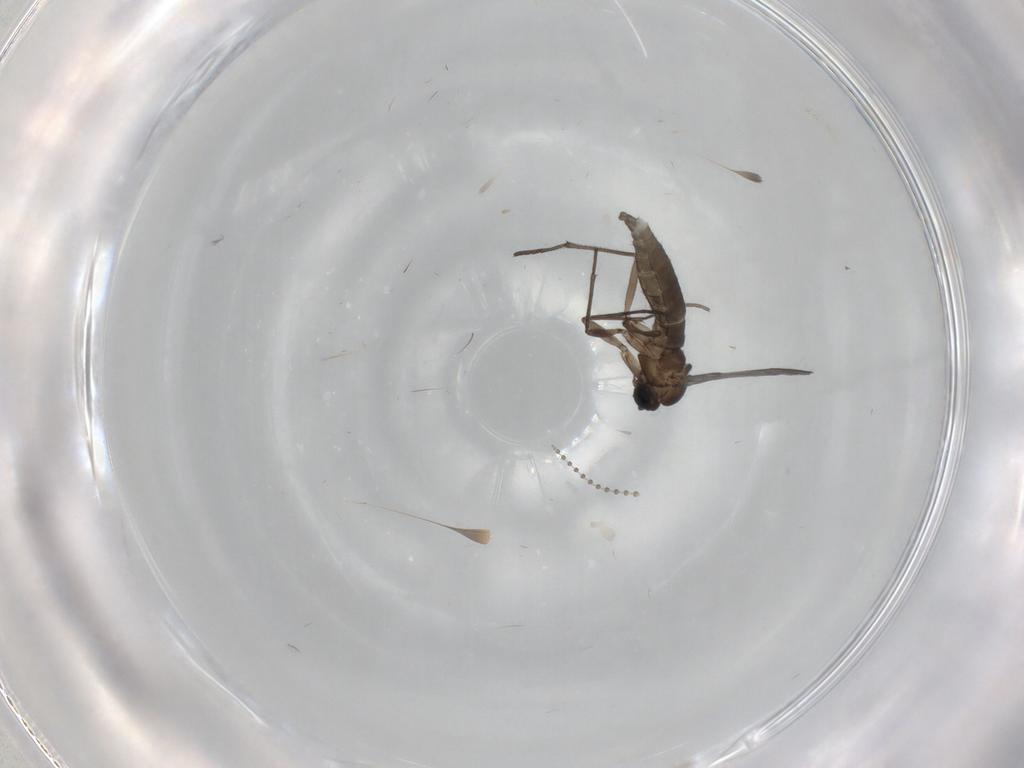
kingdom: Animalia
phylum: Arthropoda
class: Insecta
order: Diptera
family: Sciaridae
